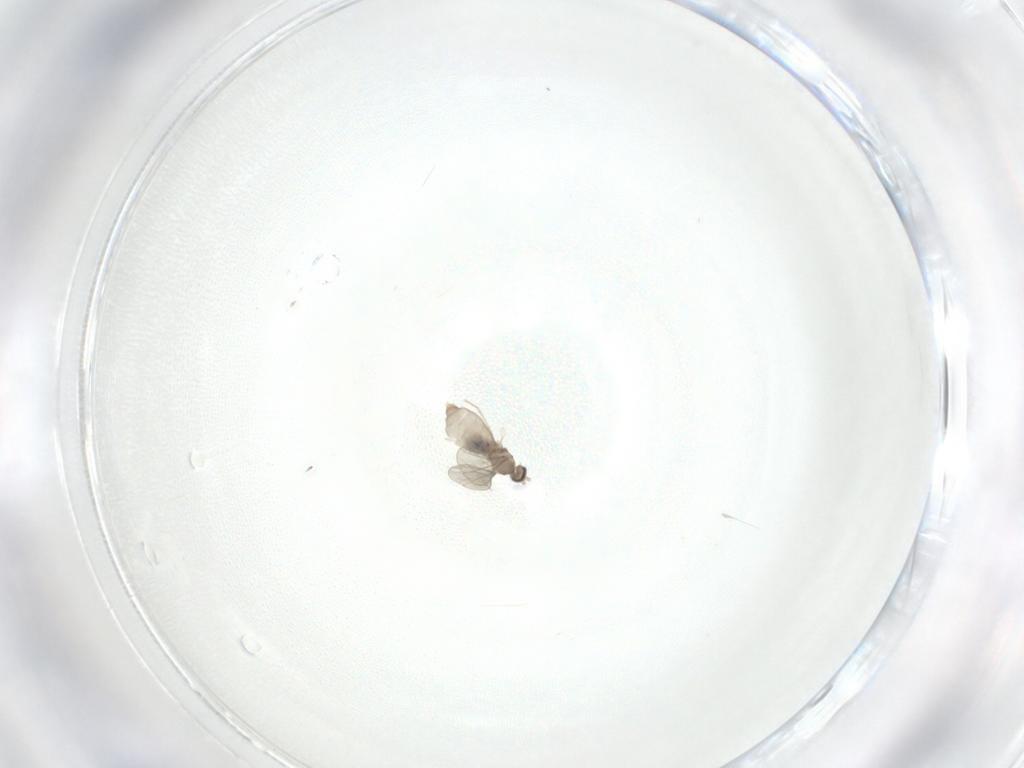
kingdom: Animalia
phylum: Arthropoda
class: Insecta
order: Diptera
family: Cecidomyiidae
